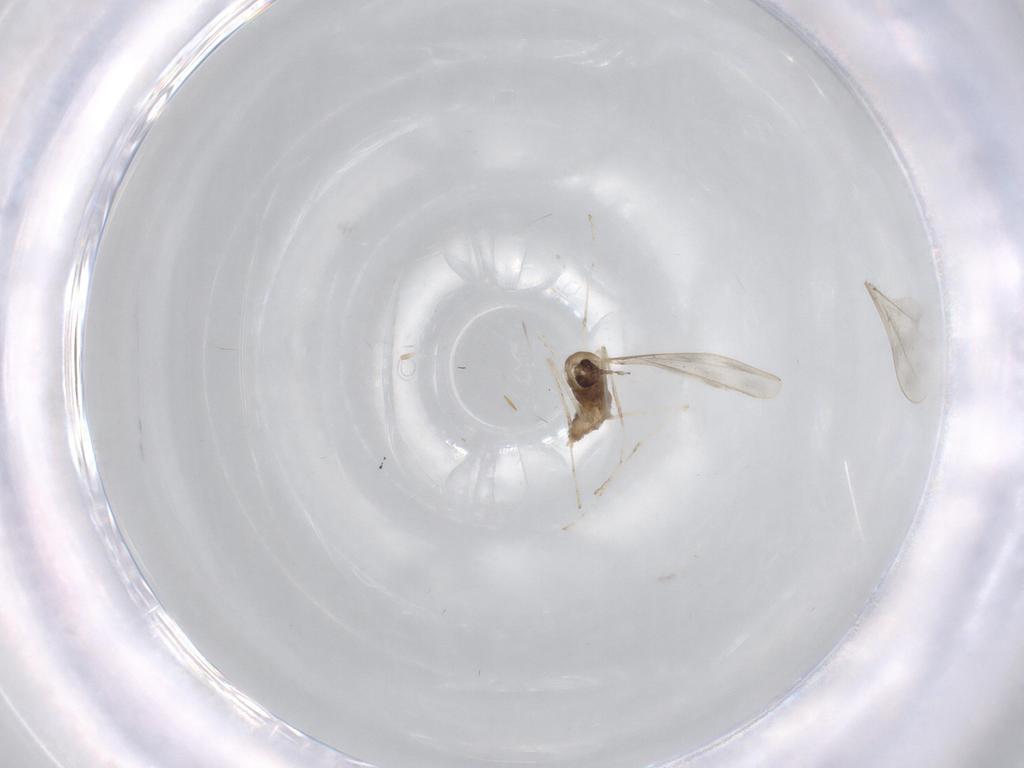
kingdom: Animalia
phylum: Arthropoda
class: Insecta
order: Diptera
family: Cecidomyiidae
